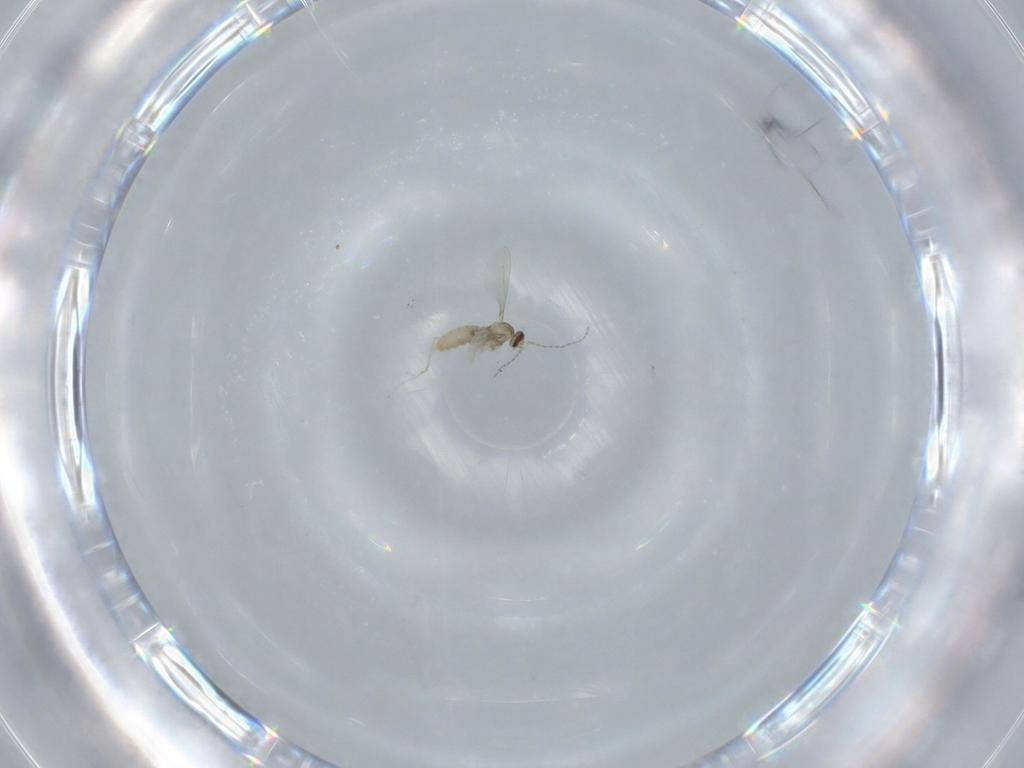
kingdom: Animalia
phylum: Arthropoda
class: Insecta
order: Diptera
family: Cecidomyiidae
